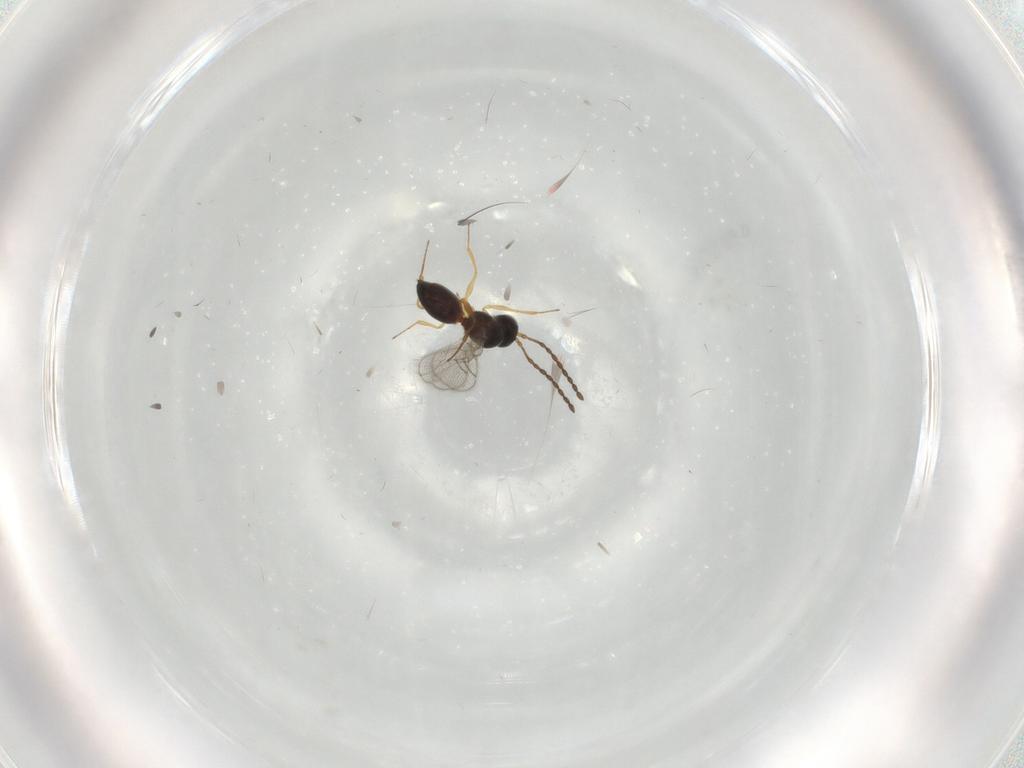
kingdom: Animalia
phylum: Arthropoda
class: Insecta
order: Hymenoptera
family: Figitidae
